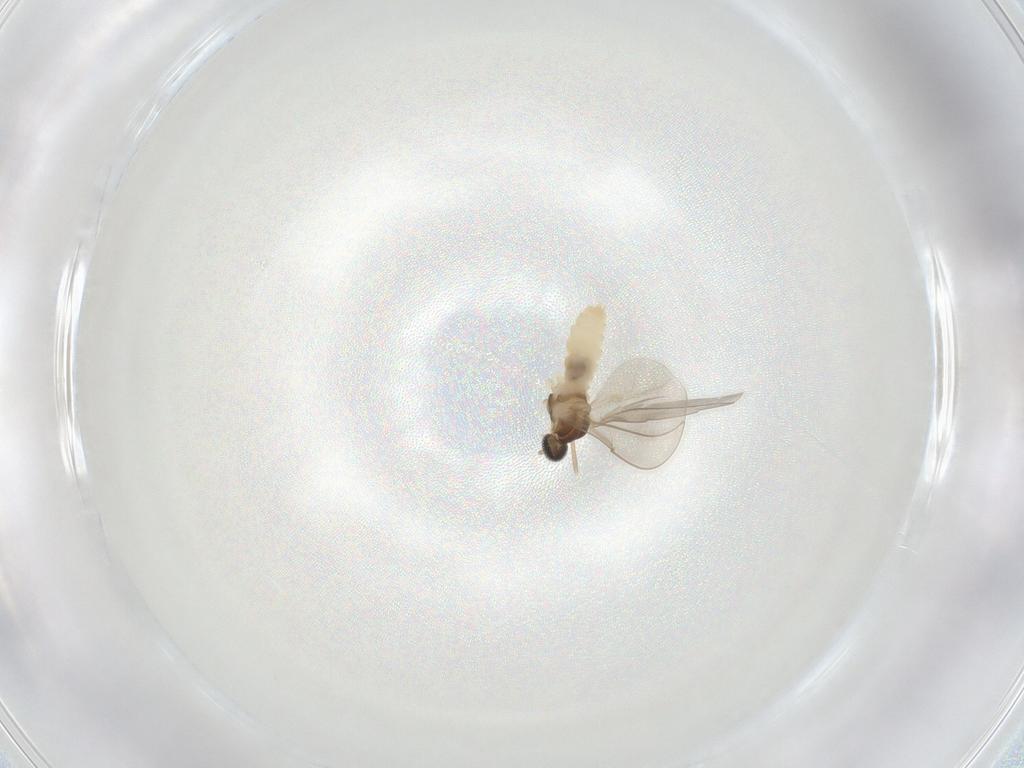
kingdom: Animalia
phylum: Arthropoda
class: Insecta
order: Diptera
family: Cecidomyiidae
